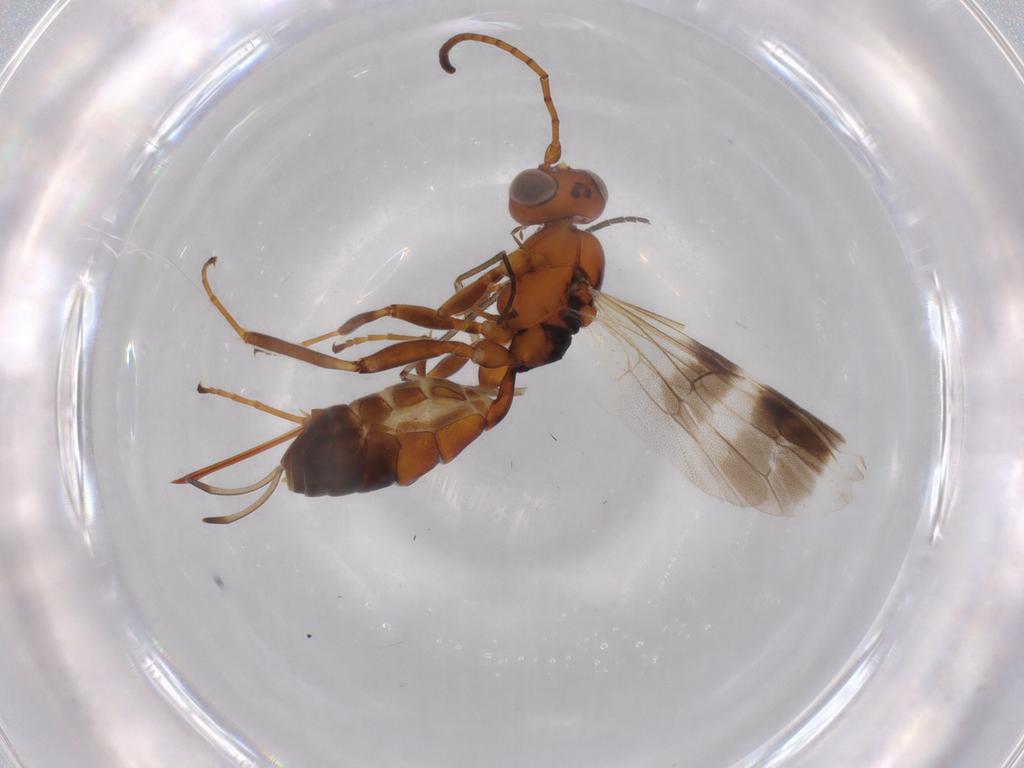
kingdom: Animalia
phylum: Arthropoda
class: Insecta
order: Hymenoptera
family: Ichneumonidae
